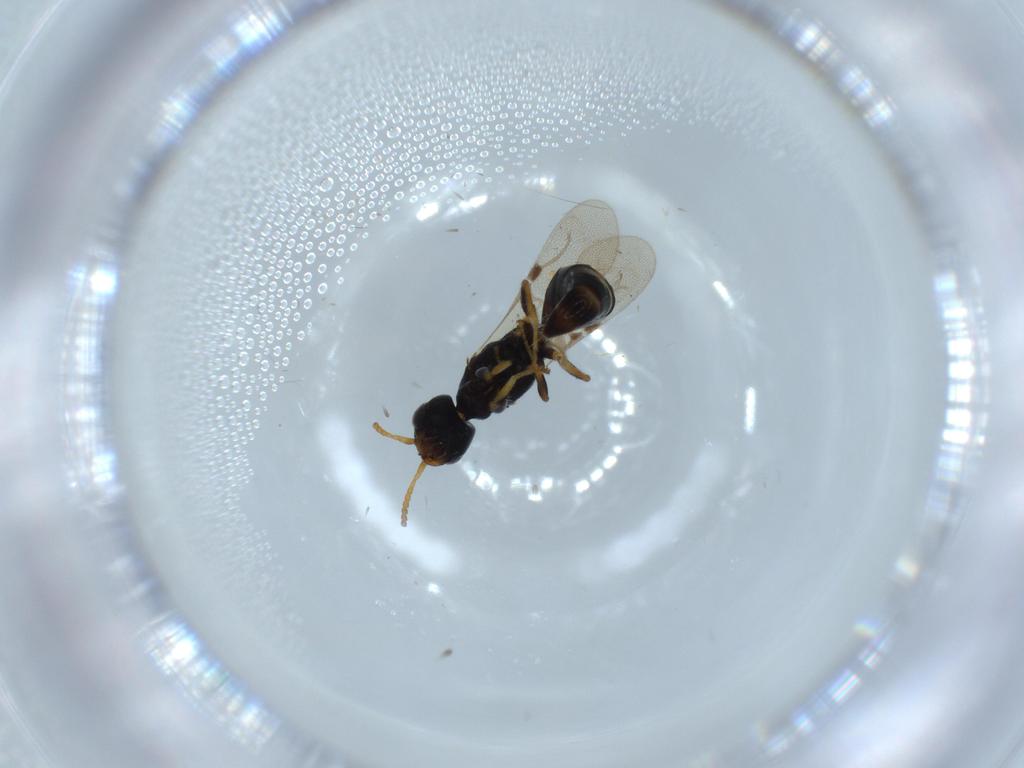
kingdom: Animalia
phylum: Arthropoda
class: Insecta
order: Hymenoptera
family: Bethylidae
